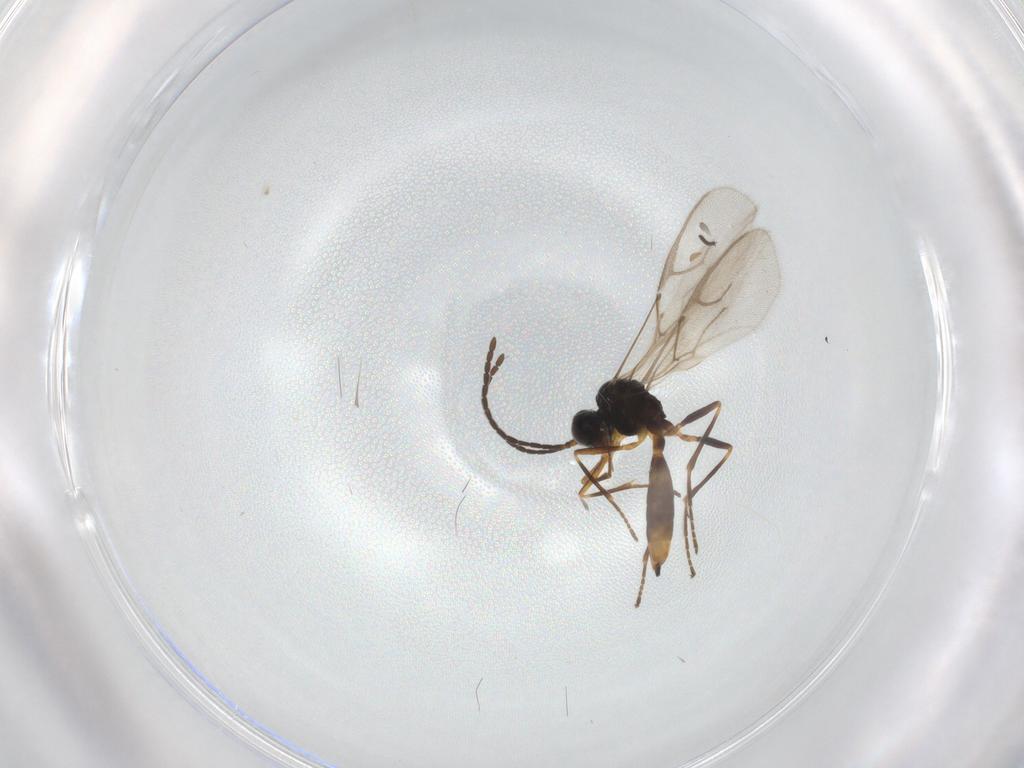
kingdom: Animalia
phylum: Arthropoda
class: Insecta
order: Hymenoptera
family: Braconidae
